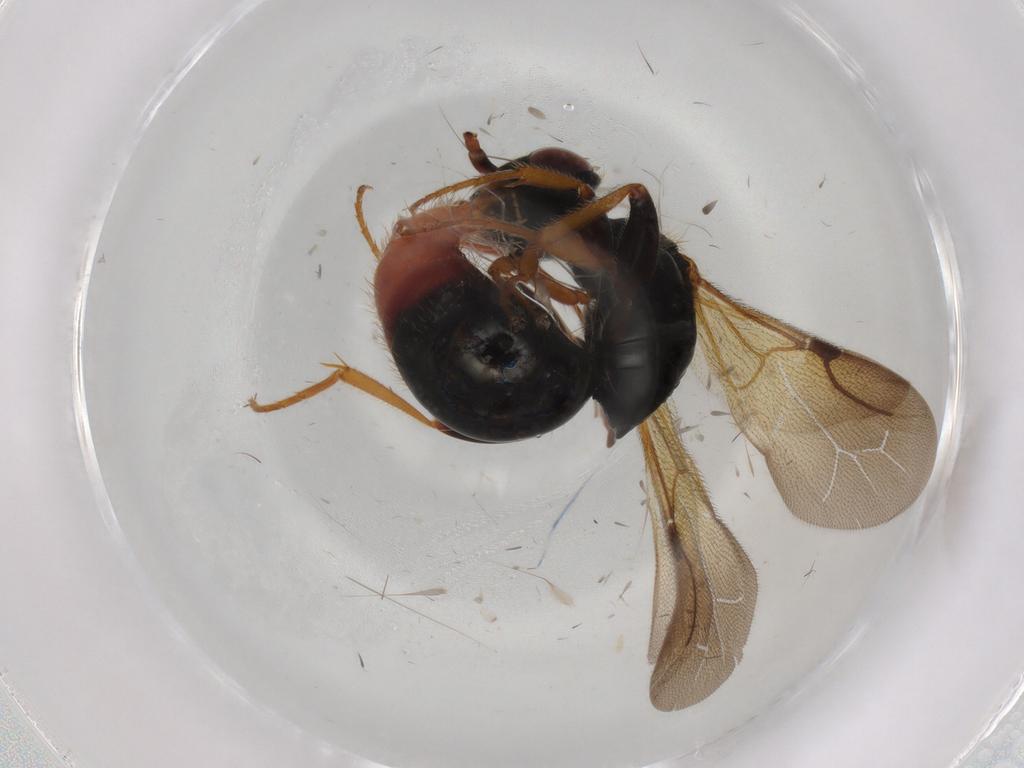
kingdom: Animalia
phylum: Arthropoda
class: Insecta
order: Hymenoptera
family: Bethylidae
